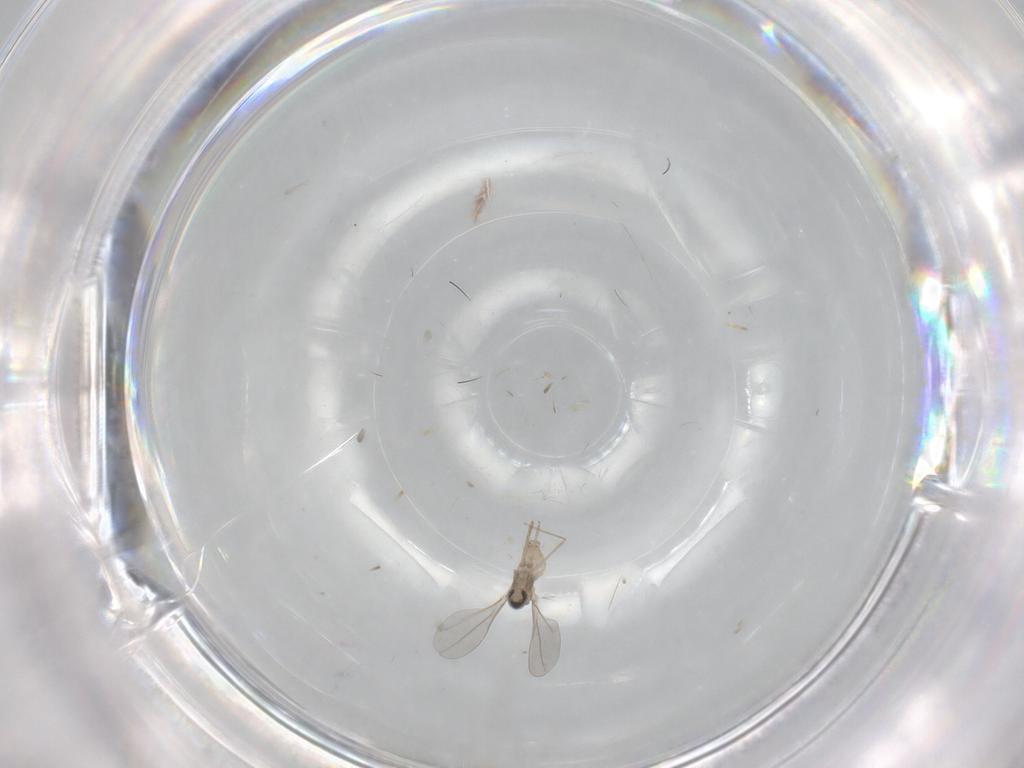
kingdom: Animalia
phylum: Arthropoda
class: Insecta
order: Diptera
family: Cecidomyiidae
